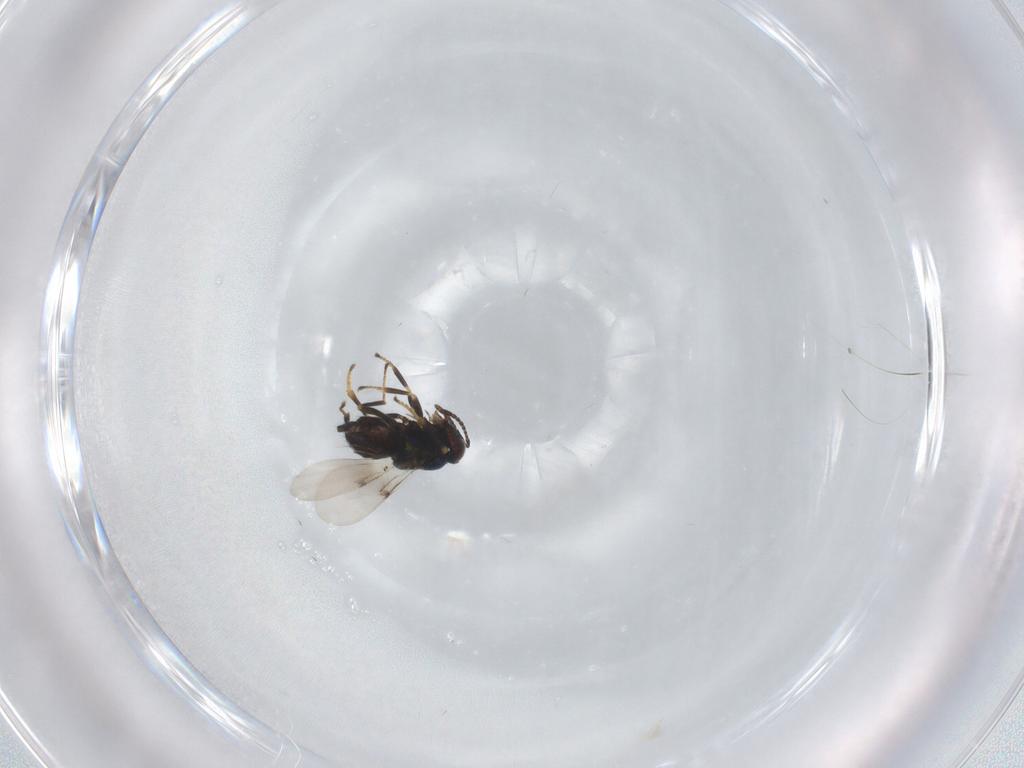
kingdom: Animalia
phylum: Arthropoda
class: Insecta
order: Hymenoptera
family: Encyrtidae
